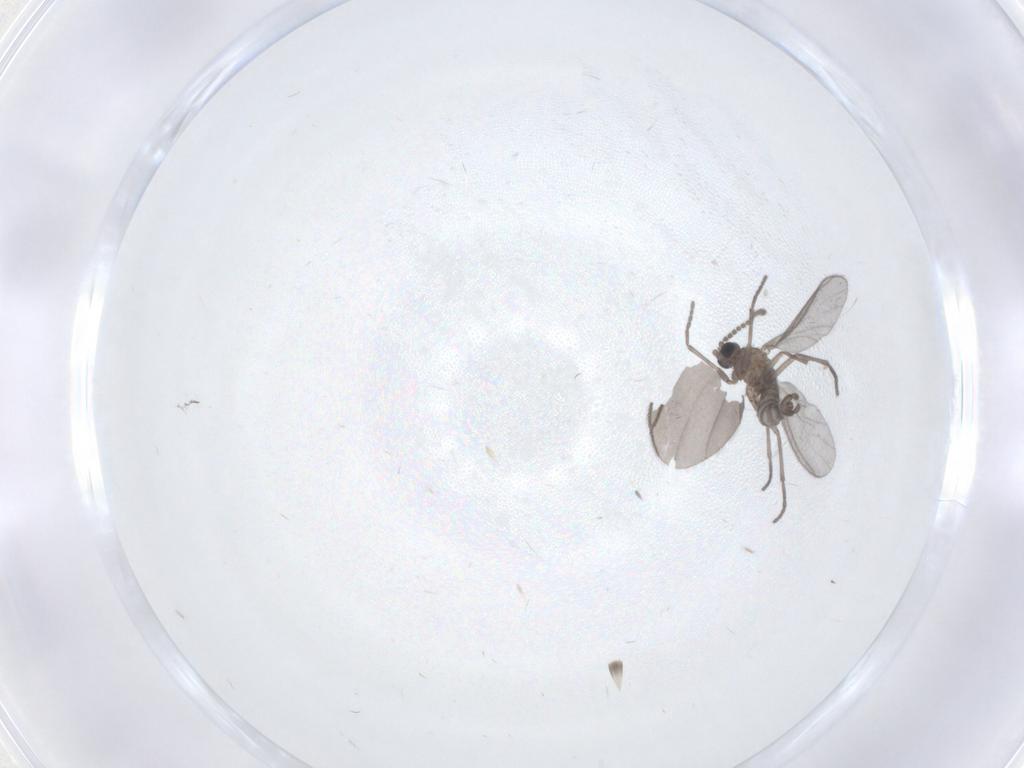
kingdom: Animalia
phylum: Arthropoda
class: Insecta
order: Diptera
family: Sciaridae
